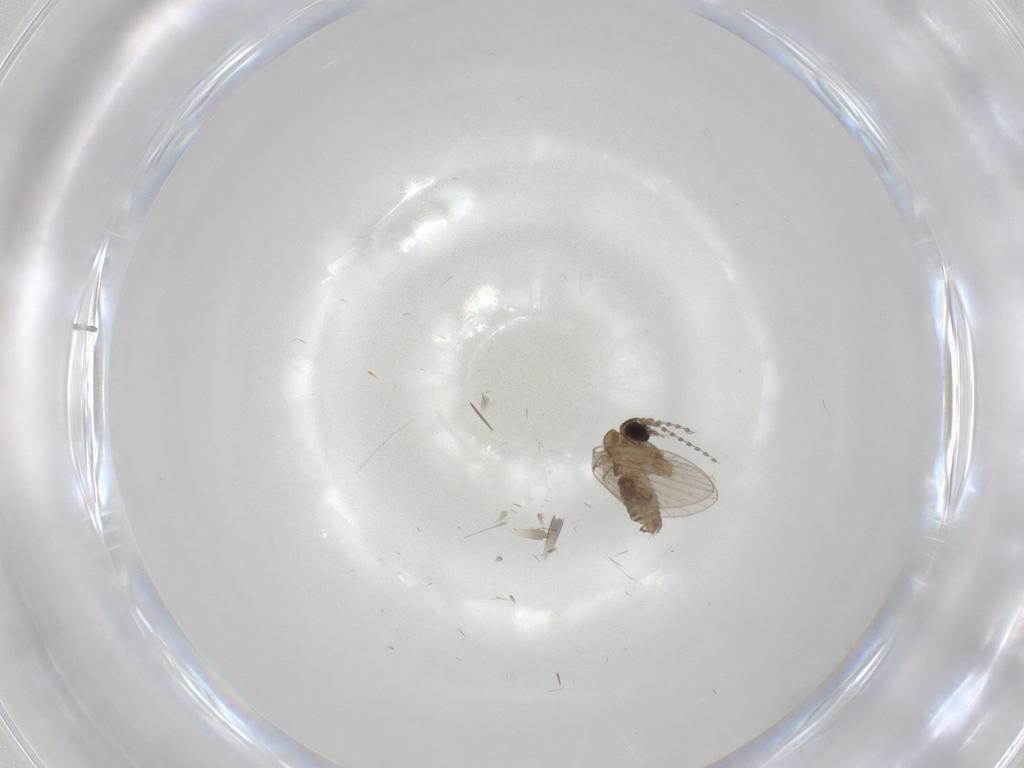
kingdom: Animalia
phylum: Arthropoda
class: Insecta
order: Diptera
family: Psychodidae
